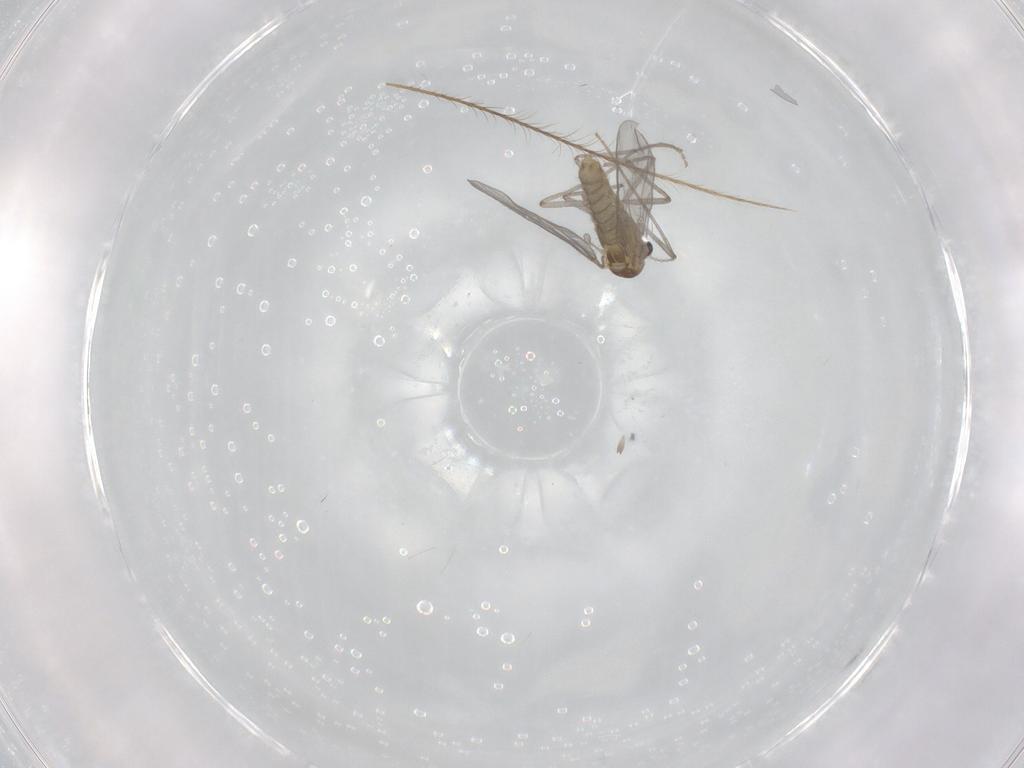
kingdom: Animalia
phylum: Arthropoda
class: Insecta
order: Diptera
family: Chironomidae
